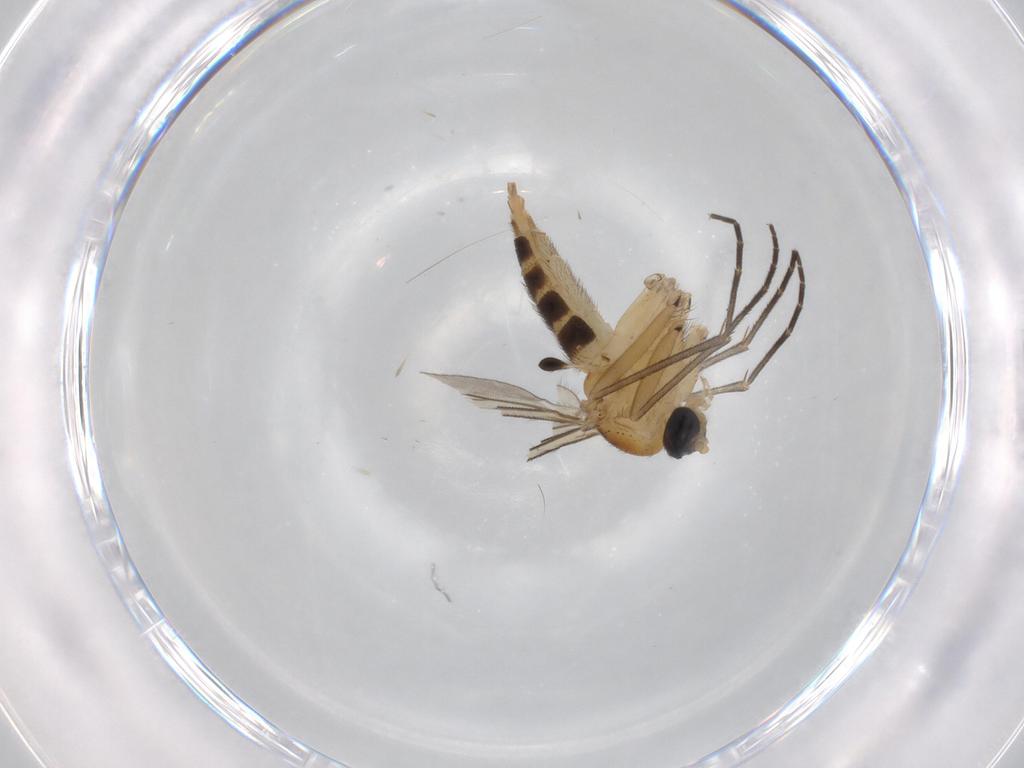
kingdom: Animalia
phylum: Arthropoda
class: Insecta
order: Diptera
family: Sciaridae
